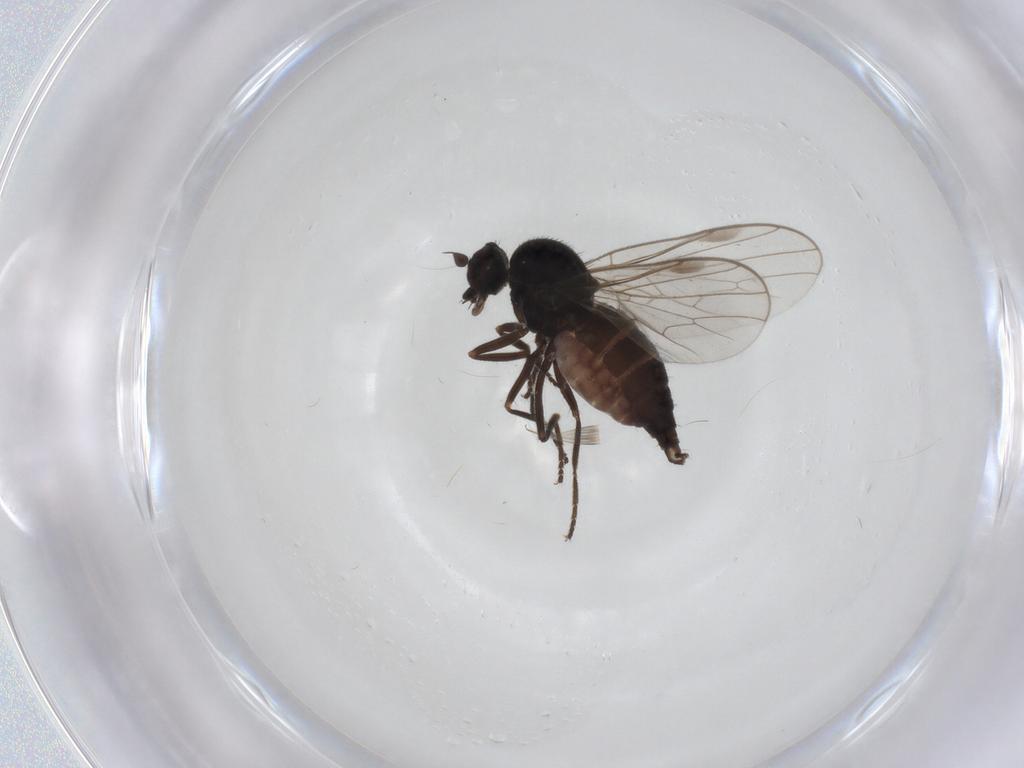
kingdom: Animalia
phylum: Arthropoda
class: Insecta
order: Diptera
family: Hybotidae
